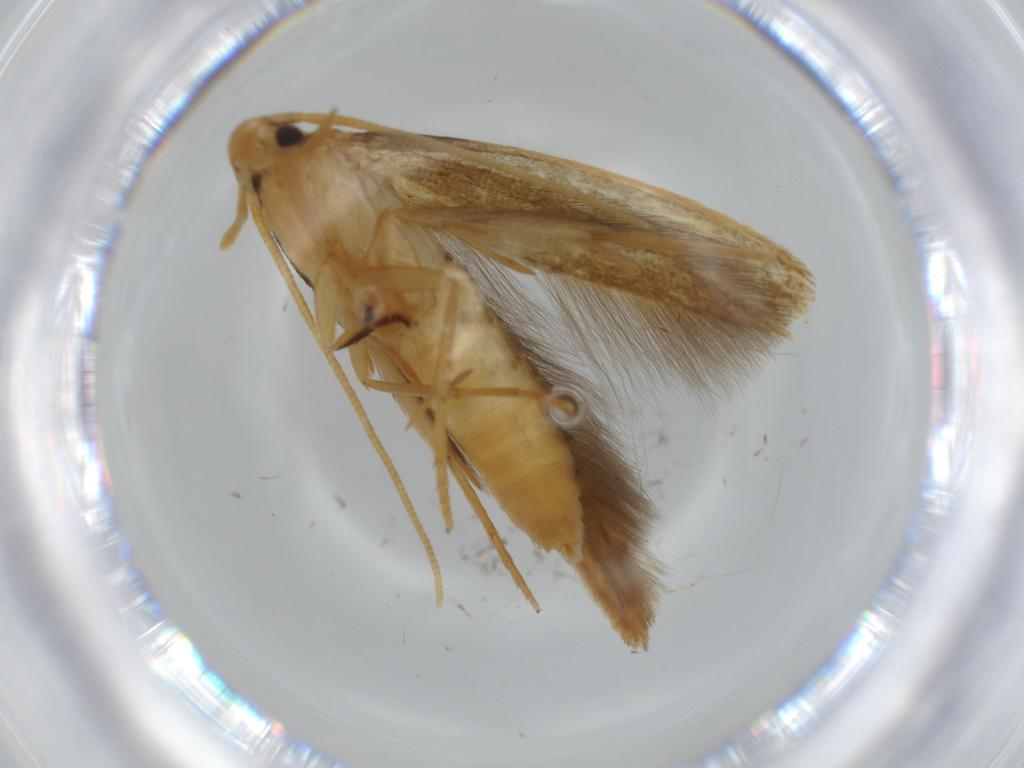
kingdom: Animalia
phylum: Arthropoda
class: Insecta
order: Lepidoptera
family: Tineidae
